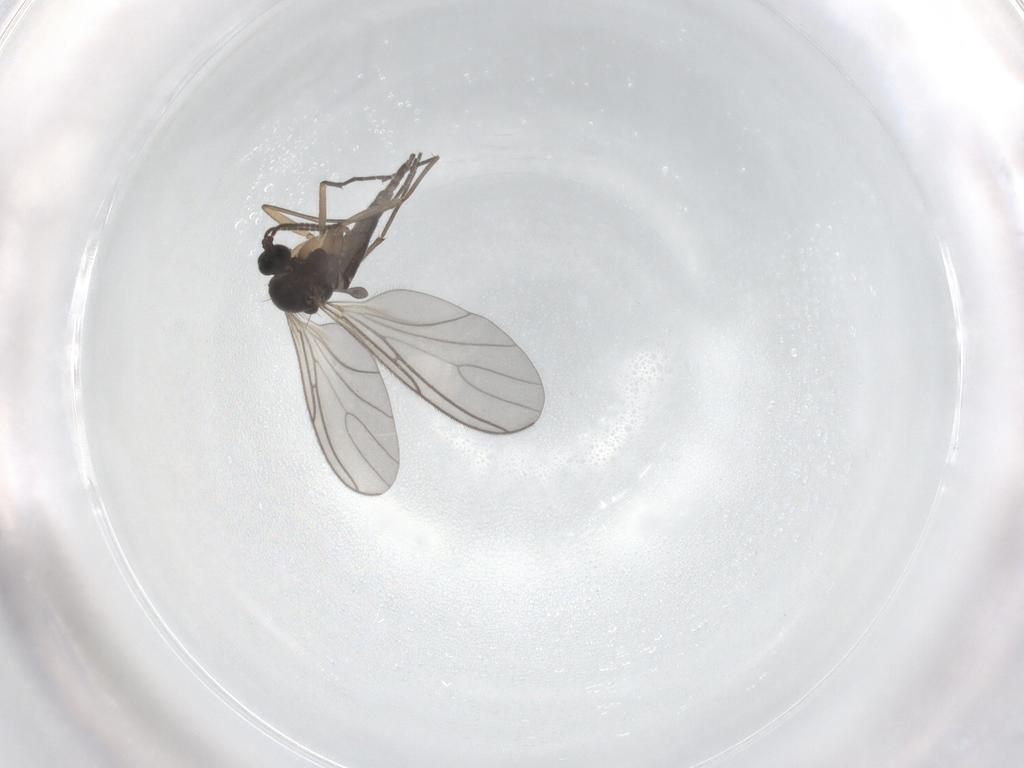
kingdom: Animalia
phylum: Arthropoda
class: Insecta
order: Diptera
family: Sciaridae
